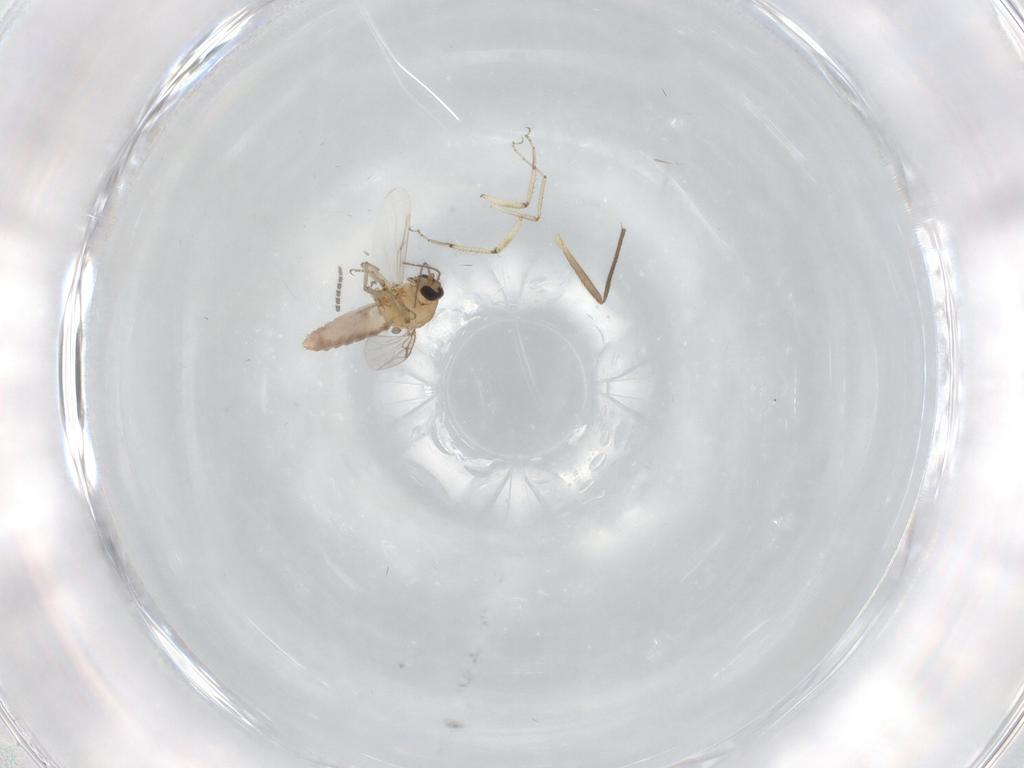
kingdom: Animalia
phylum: Arthropoda
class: Insecta
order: Diptera
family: Ceratopogonidae
